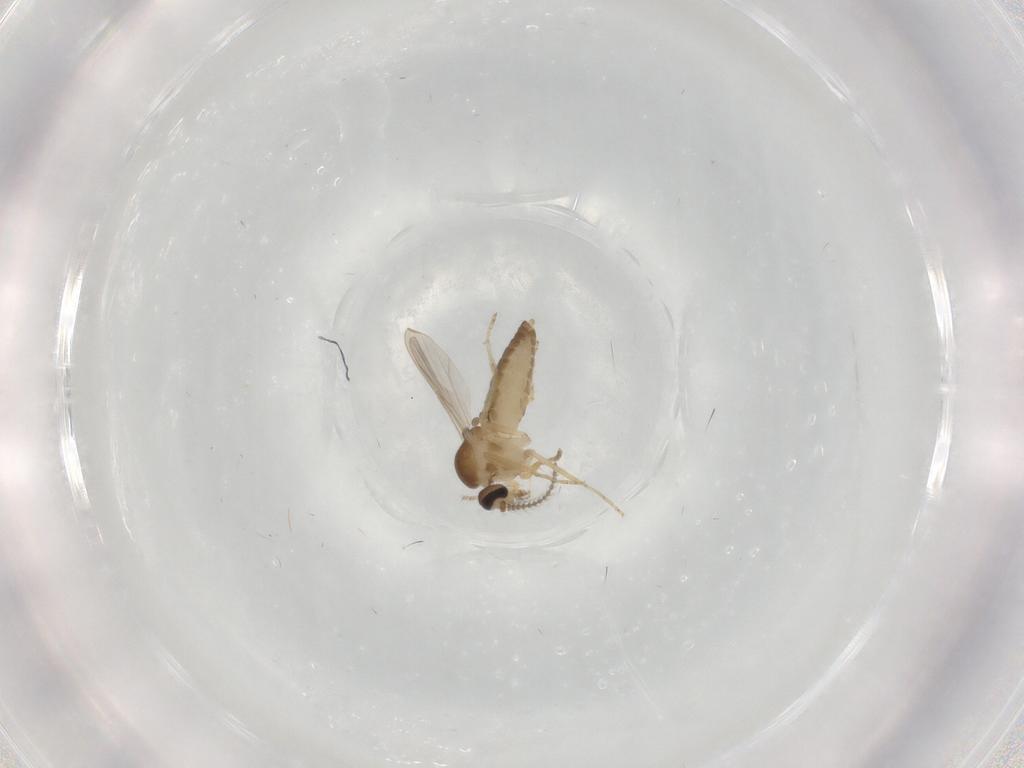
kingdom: Animalia
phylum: Arthropoda
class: Insecta
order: Diptera
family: Ceratopogonidae
